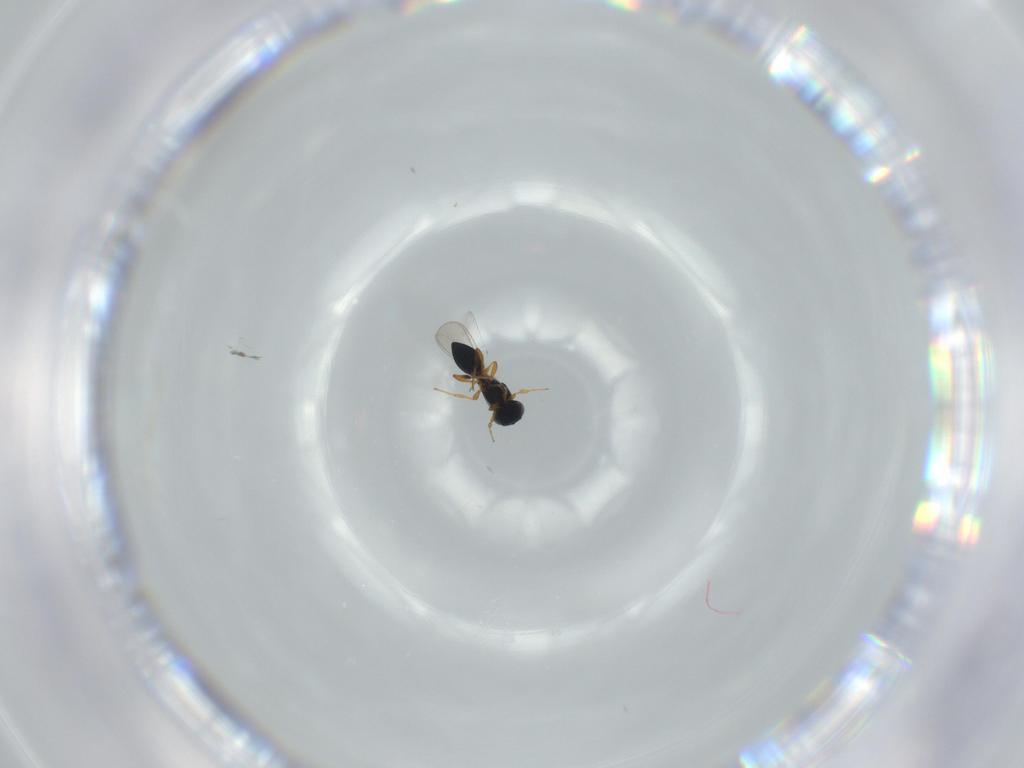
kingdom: Animalia
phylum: Arthropoda
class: Insecta
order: Hymenoptera
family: Platygastridae
